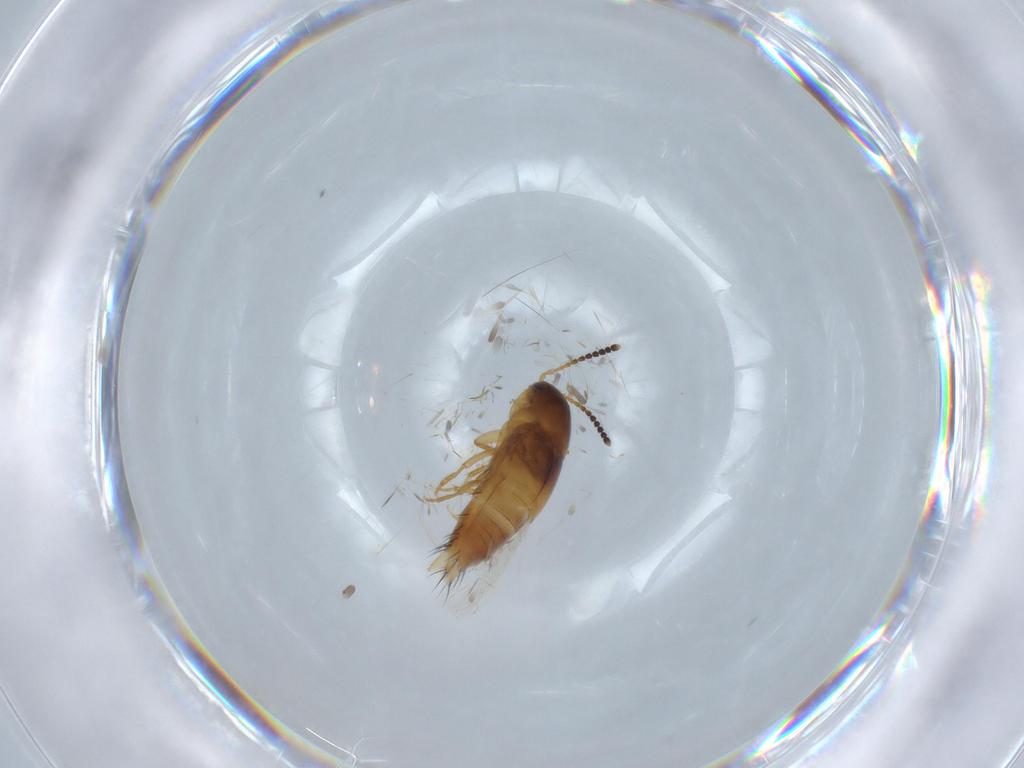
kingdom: Animalia
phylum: Arthropoda
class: Insecta
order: Coleoptera
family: Staphylinidae
